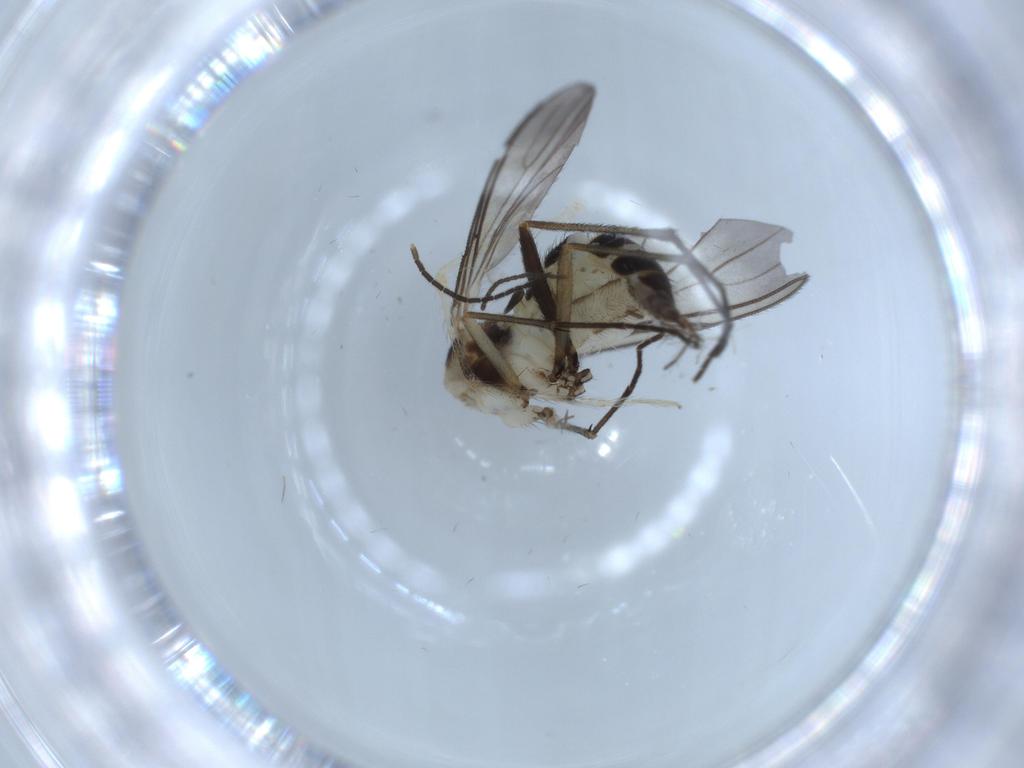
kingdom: Animalia
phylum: Arthropoda
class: Insecta
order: Diptera
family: Sciaridae
